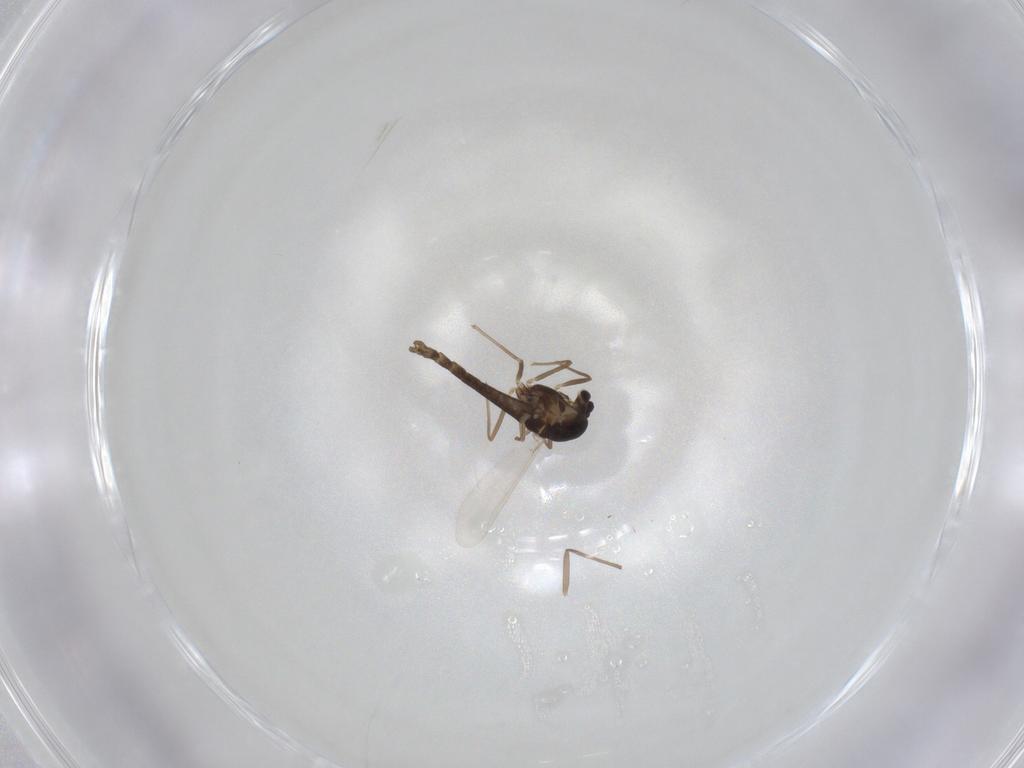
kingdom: Animalia
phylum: Arthropoda
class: Insecta
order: Diptera
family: Chironomidae
